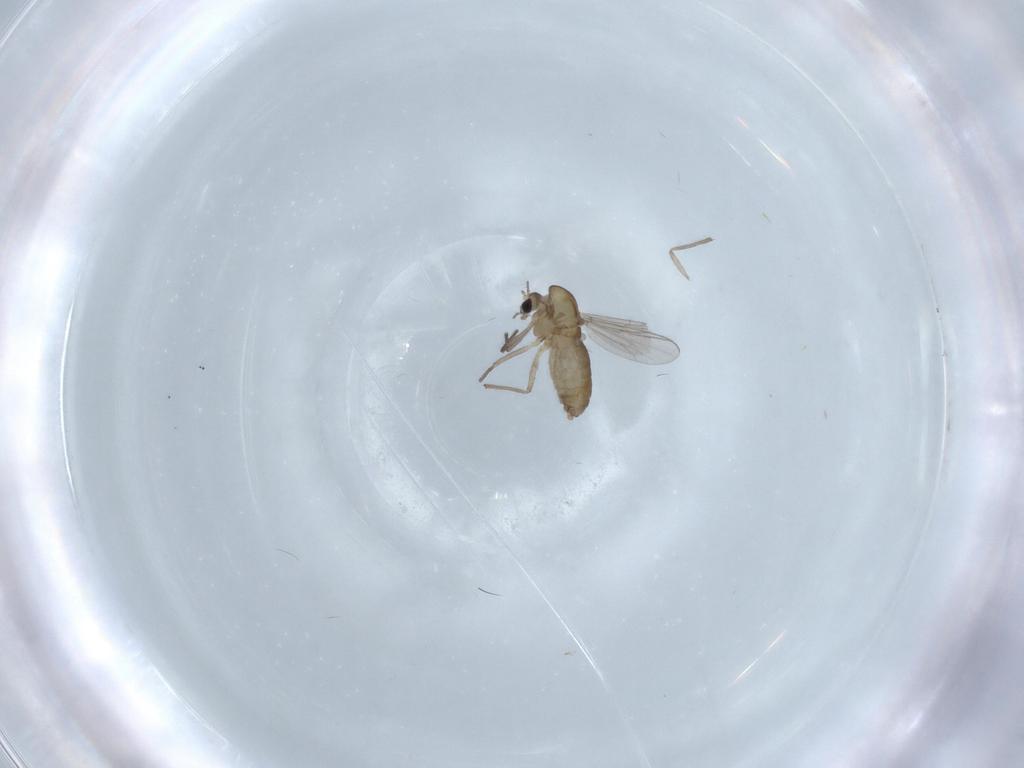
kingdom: Animalia
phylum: Arthropoda
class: Insecta
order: Diptera
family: Chironomidae
